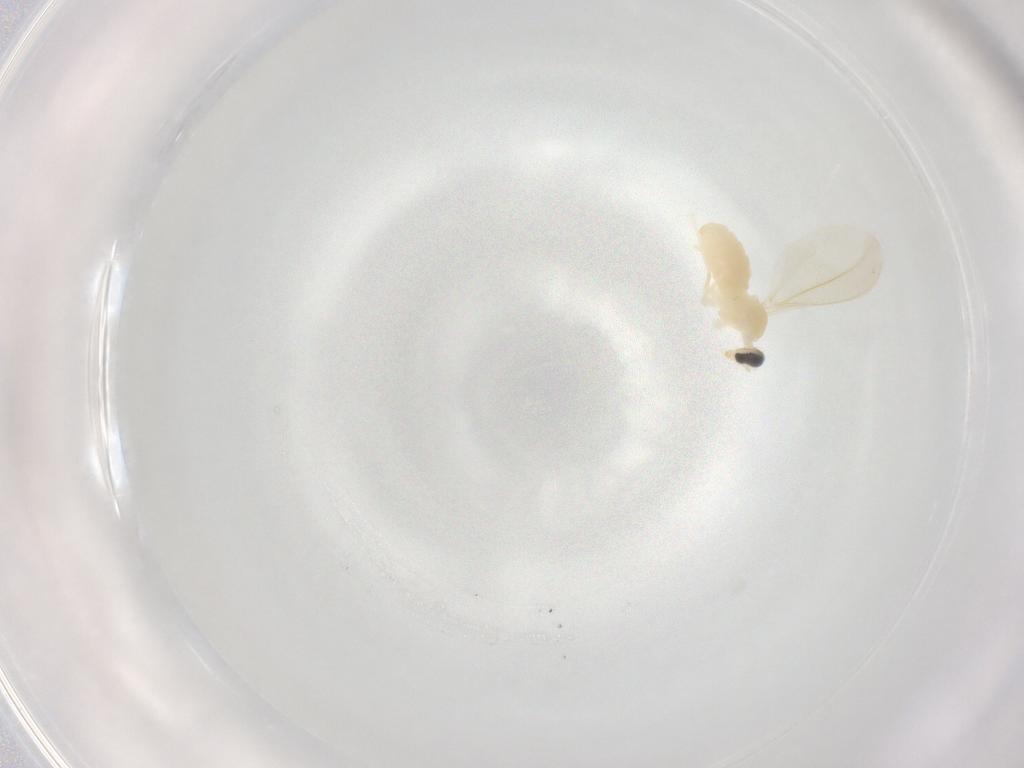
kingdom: Animalia
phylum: Arthropoda
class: Insecta
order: Diptera
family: Cecidomyiidae
